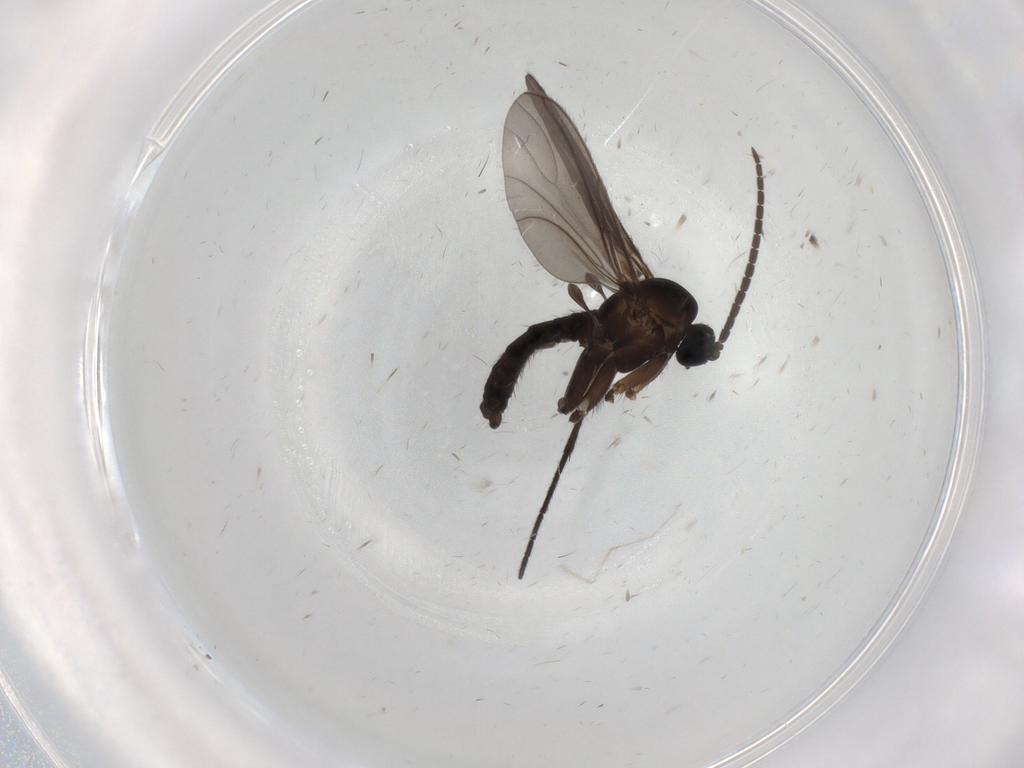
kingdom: Animalia
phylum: Arthropoda
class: Insecta
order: Diptera
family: Sciaridae
